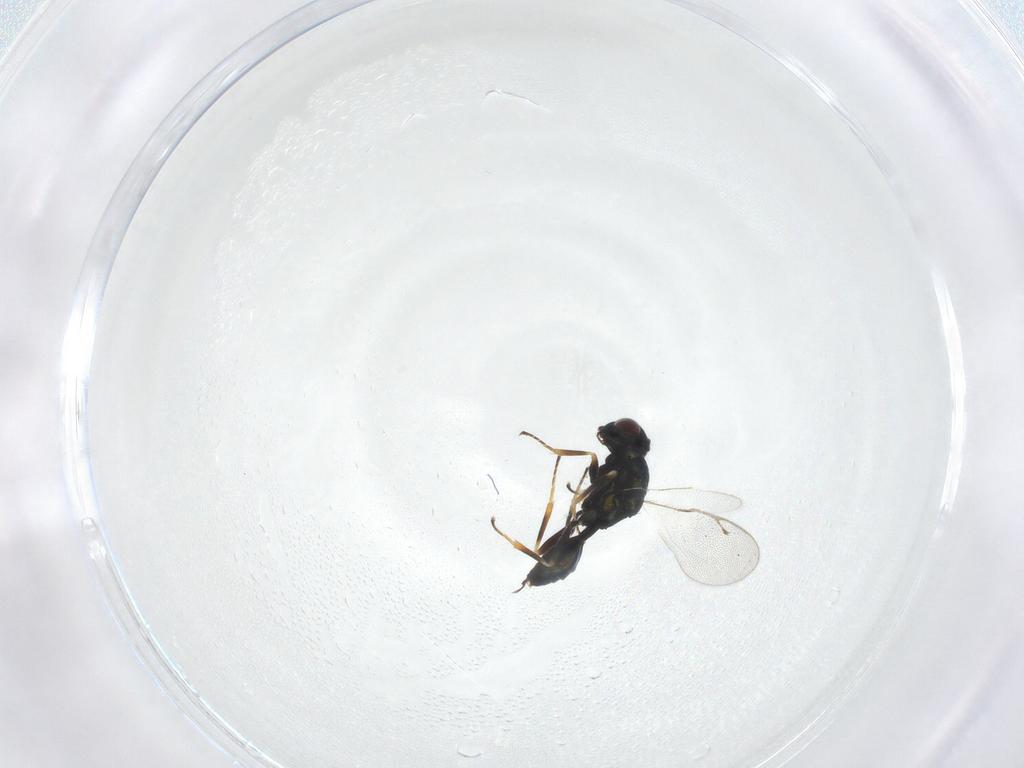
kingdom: Animalia
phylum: Arthropoda
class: Insecta
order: Hymenoptera
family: Pteromalidae
